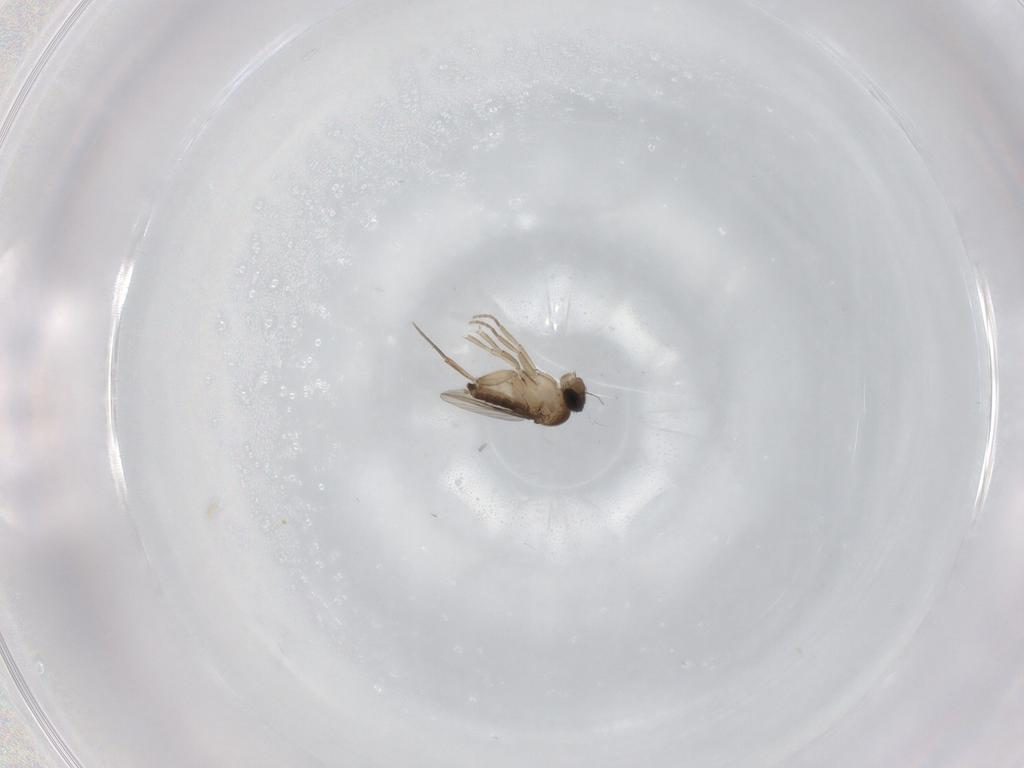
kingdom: Animalia
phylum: Arthropoda
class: Insecta
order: Diptera
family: Phoridae
